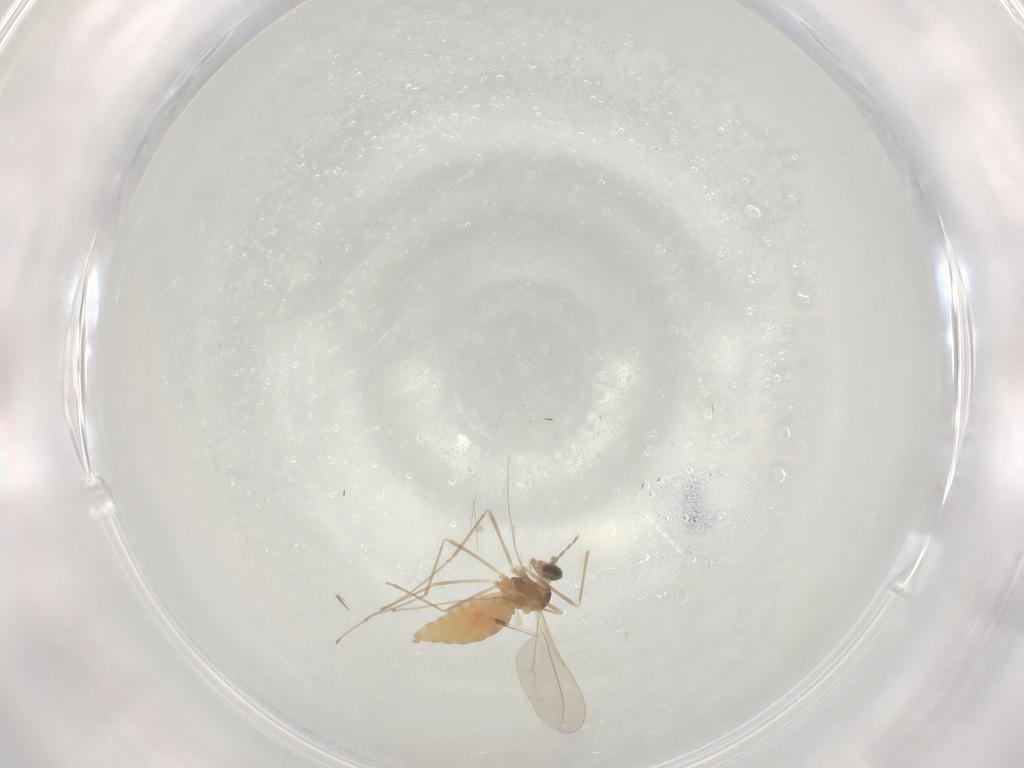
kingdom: Animalia
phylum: Arthropoda
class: Insecta
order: Diptera
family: Cecidomyiidae
